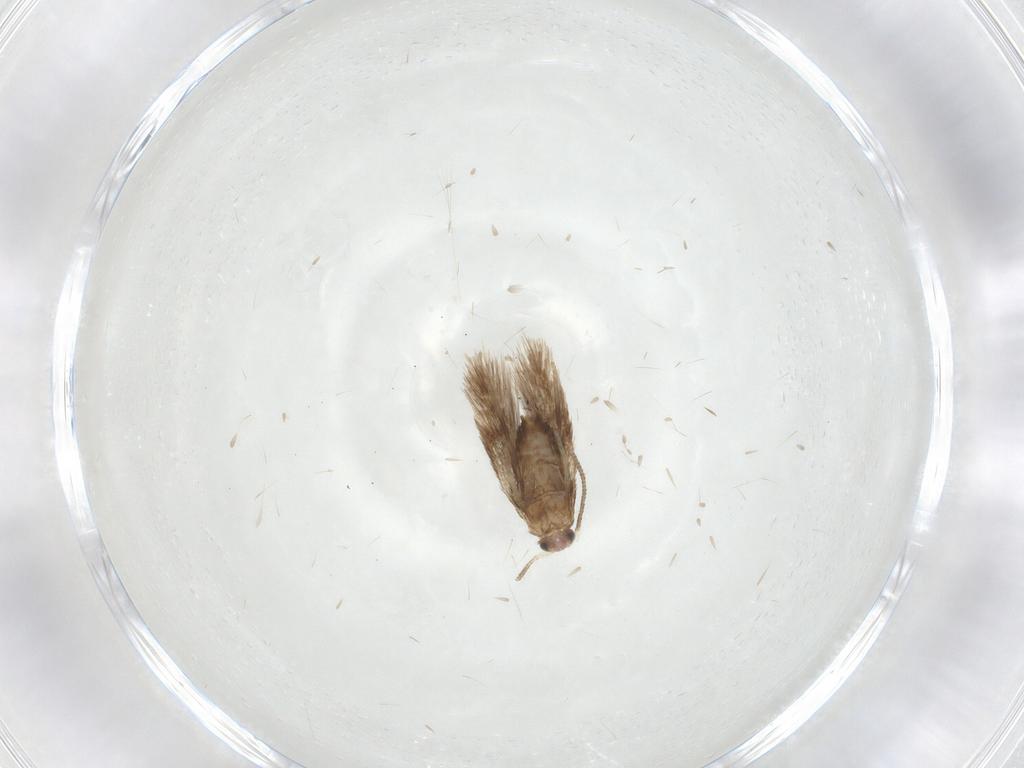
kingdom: Animalia
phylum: Arthropoda
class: Insecta
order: Lepidoptera
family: Nepticulidae
